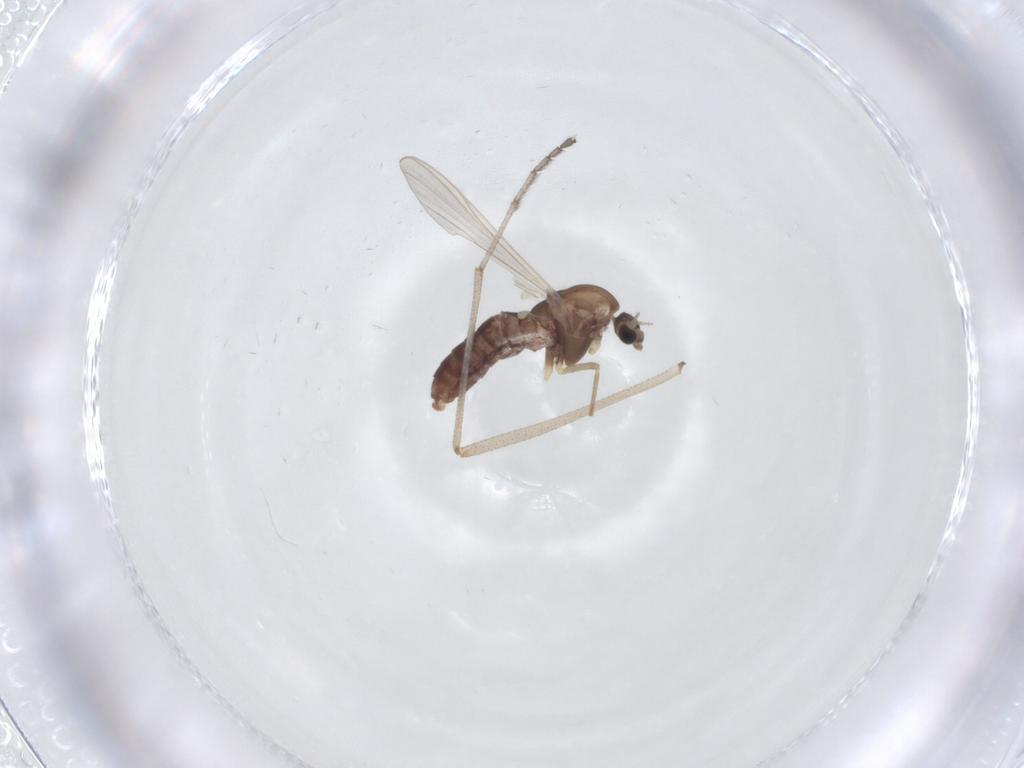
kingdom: Animalia
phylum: Arthropoda
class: Insecta
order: Diptera
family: Chironomidae
